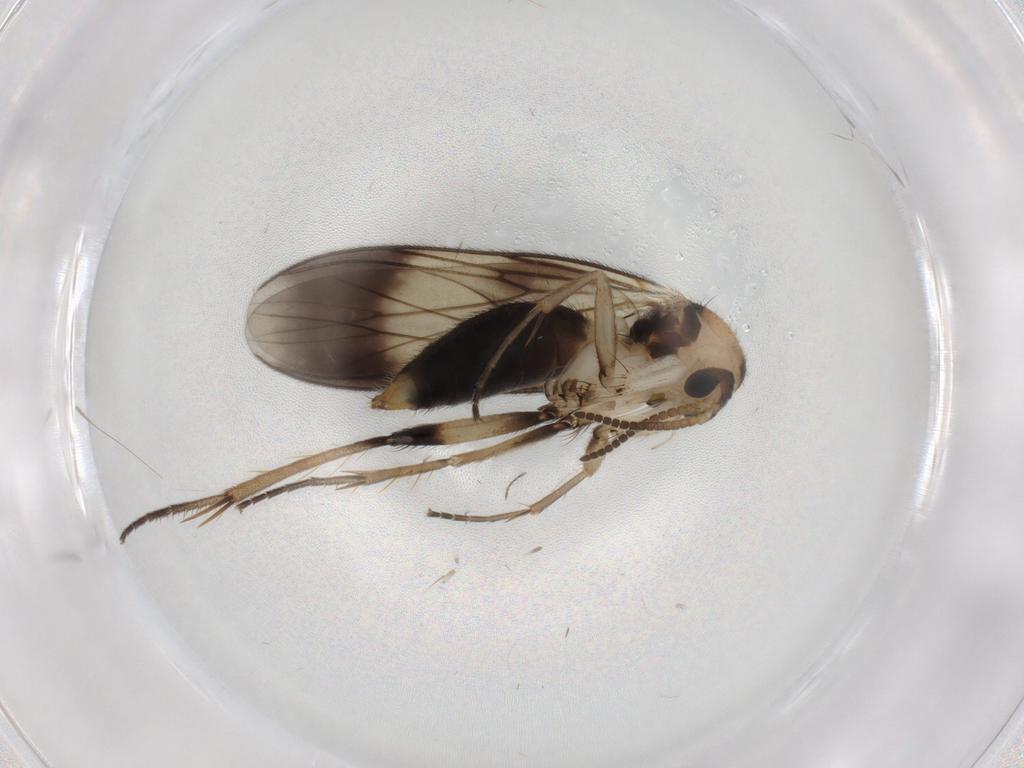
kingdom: Animalia
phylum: Arthropoda
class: Insecta
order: Diptera
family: Mycetophilidae
